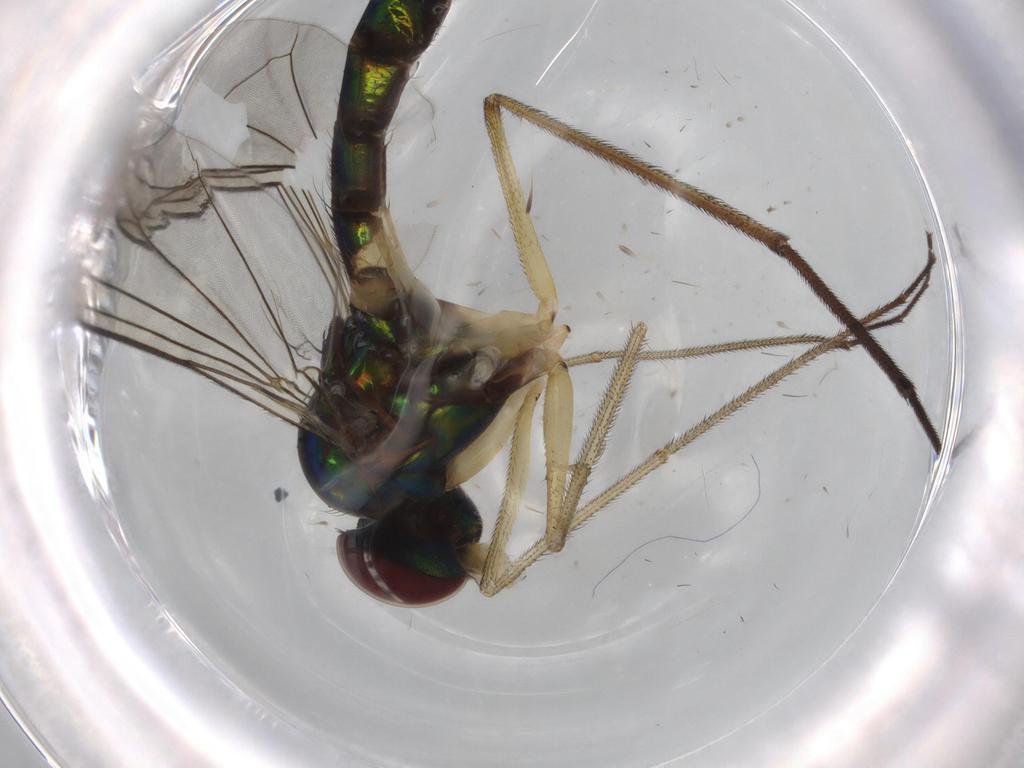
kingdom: Animalia
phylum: Arthropoda
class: Insecta
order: Diptera
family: Dolichopodidae
